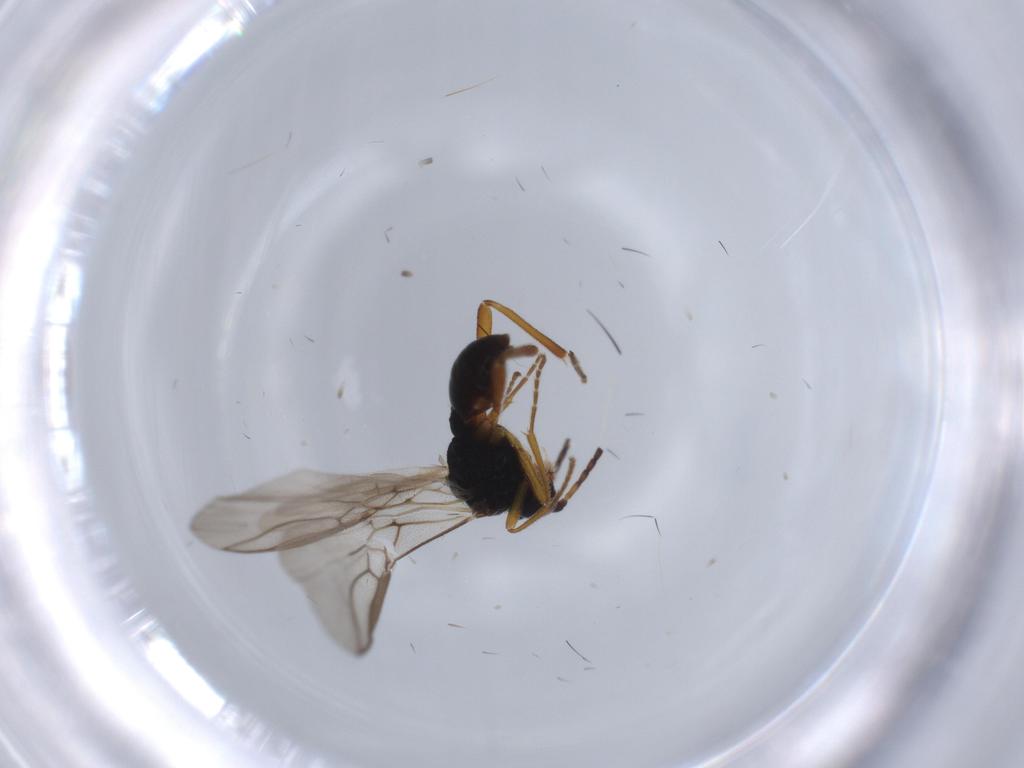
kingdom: Animalia
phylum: Arthropoda
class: Insecta
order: Hymenoptera
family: Braconidae
